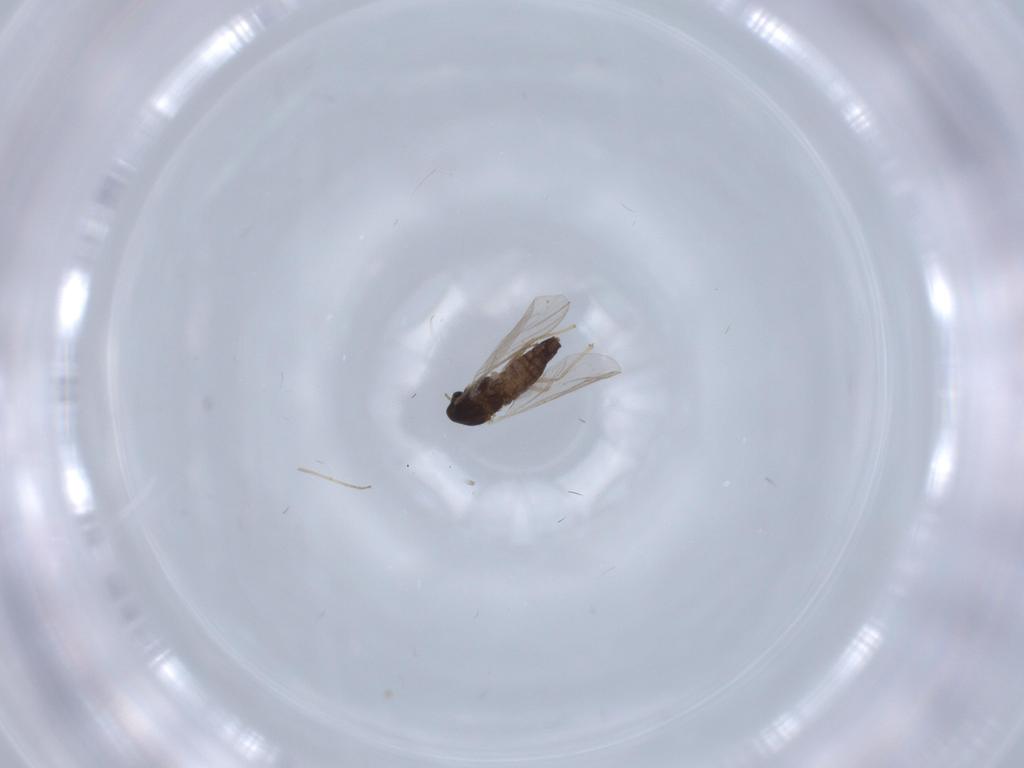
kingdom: Animalia
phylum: Arthropoda
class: Insecta
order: Diptera
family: Chironomidae
